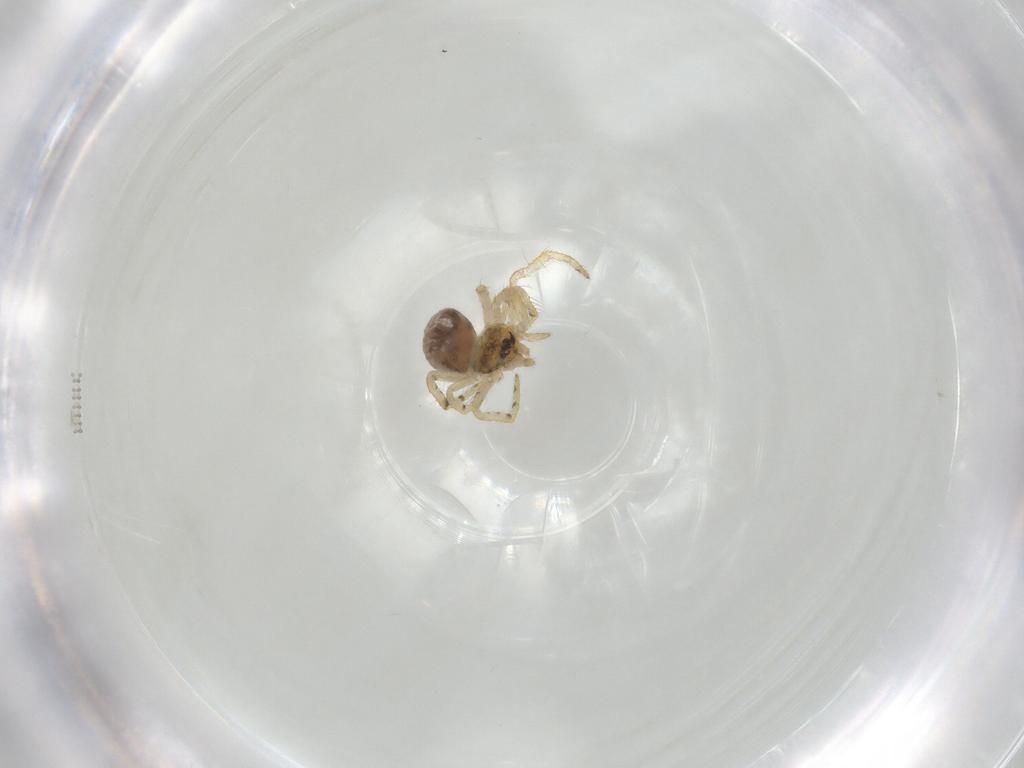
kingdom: Animalia
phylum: Arthropoda
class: Arachnida
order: Araneae
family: Theridiidae
